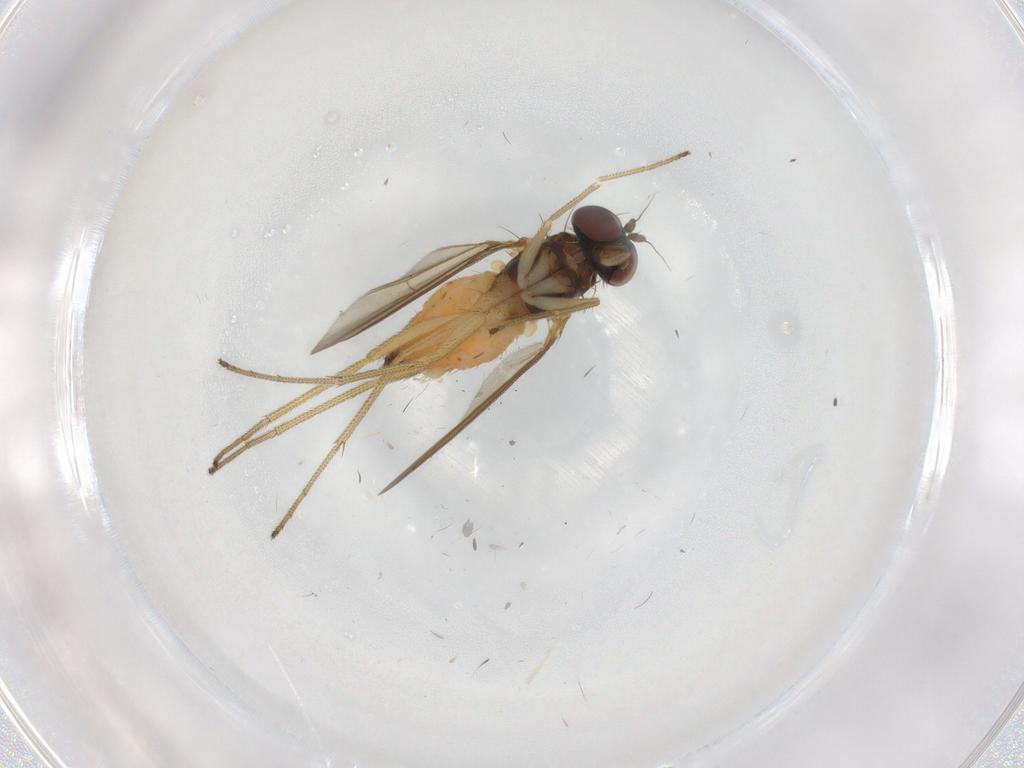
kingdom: Animalia
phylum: Arthropoda
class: Insecta
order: Diptera
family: Dolichopodidae
